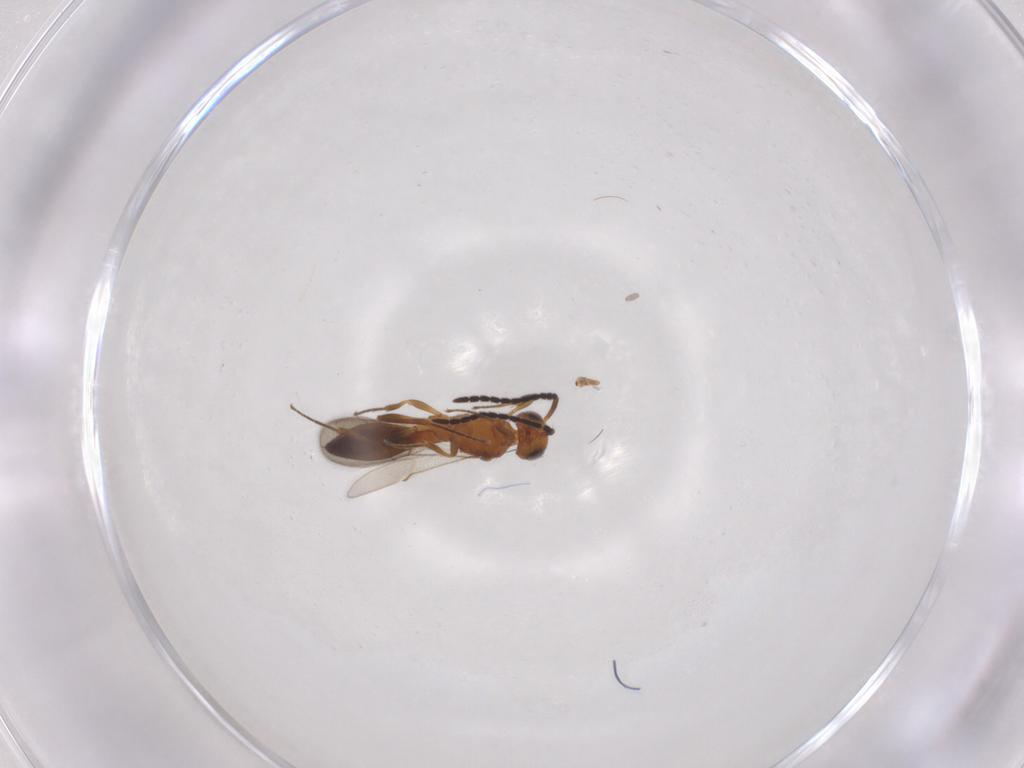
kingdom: Animalia
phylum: Arthropoda
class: Insecta
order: Hymenoptera
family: Scelionidae
